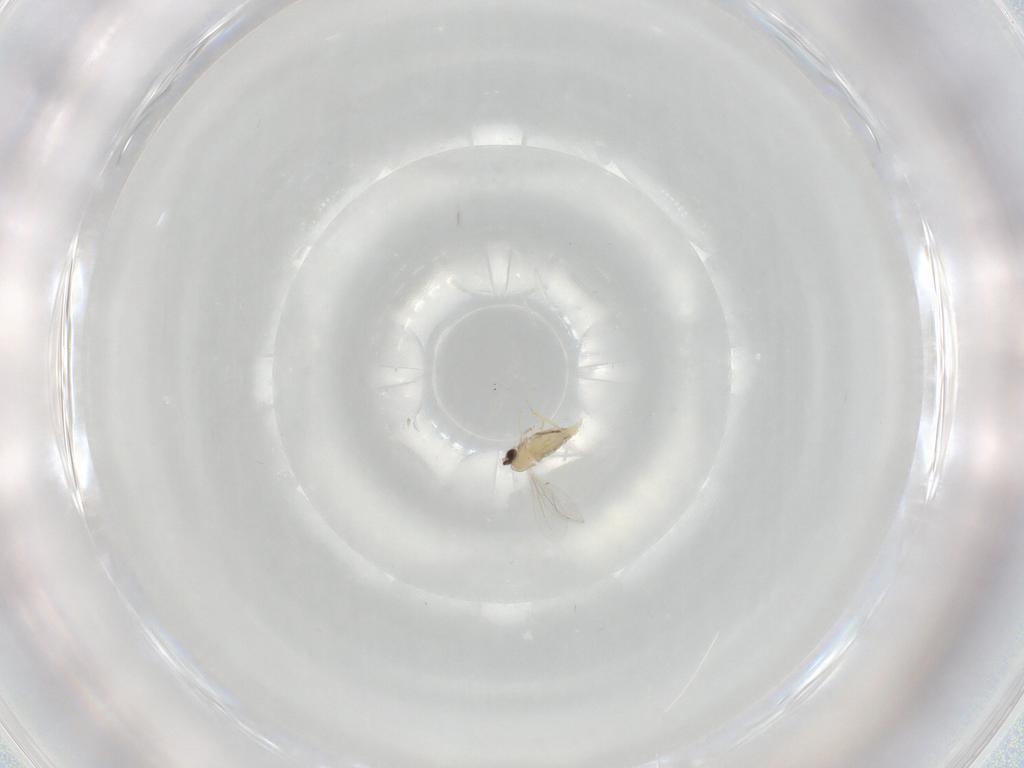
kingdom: Animalia
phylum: Arthropoda
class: Insecta
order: Diptera
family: Cecidomyiidae
